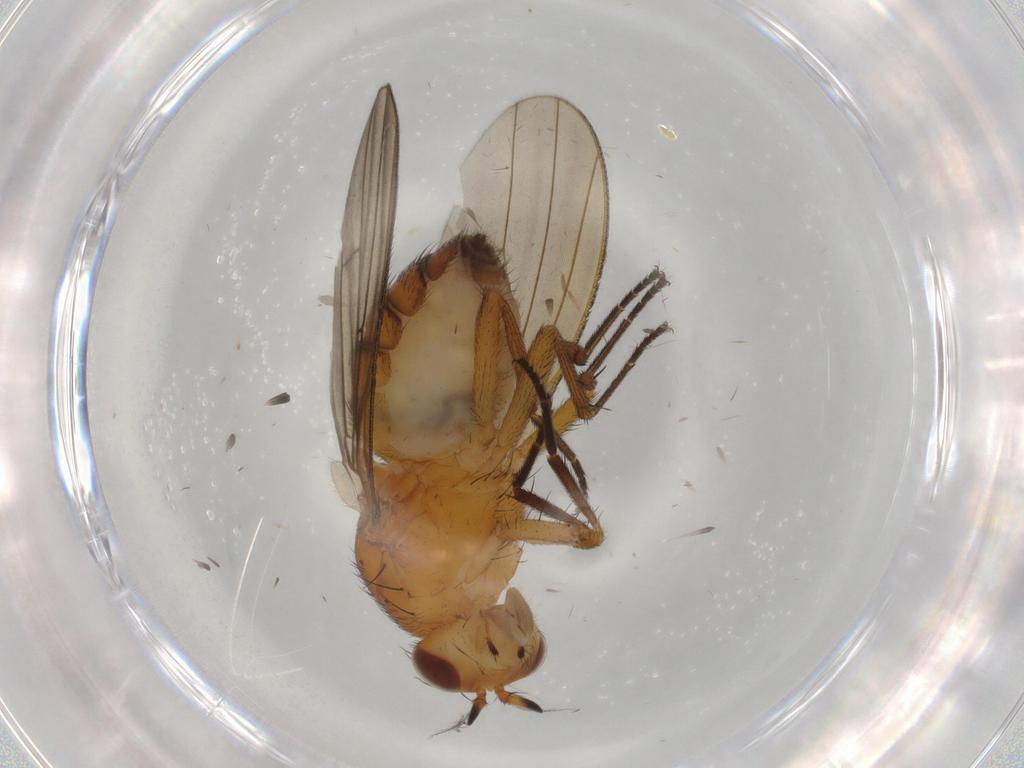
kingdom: Animalia
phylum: Arthropoda
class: Insecta
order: Diptera
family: Lauxaniidae
